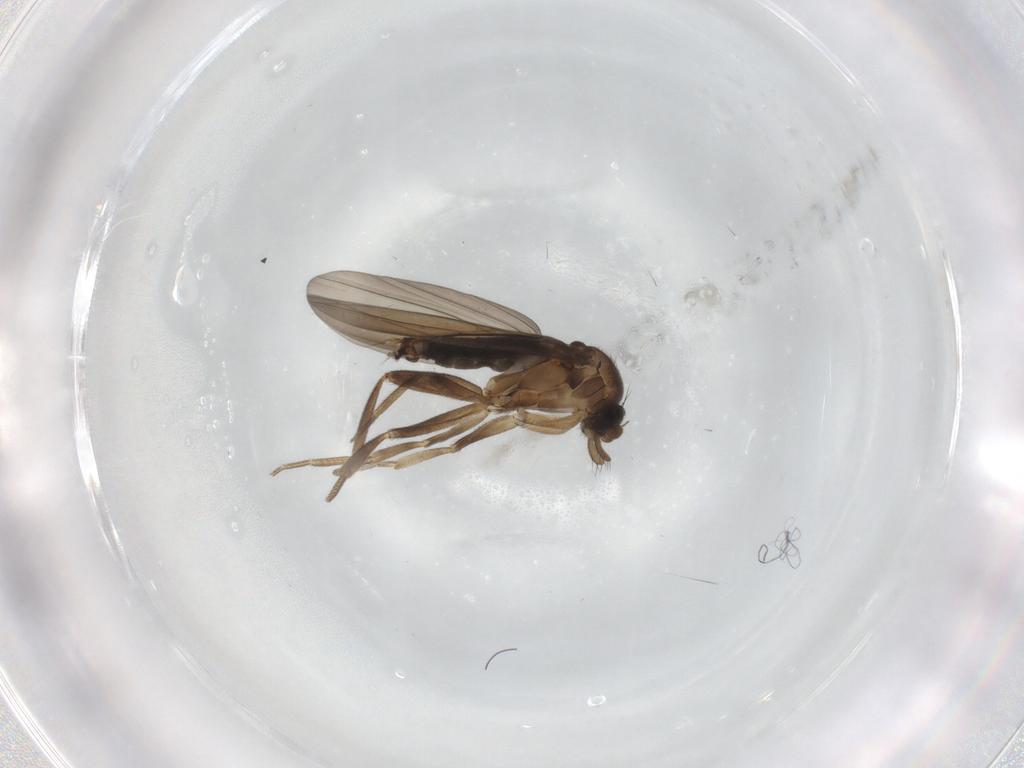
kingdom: Animalia
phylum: Arthropoda
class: Insecta
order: Diptera
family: Phoridae
